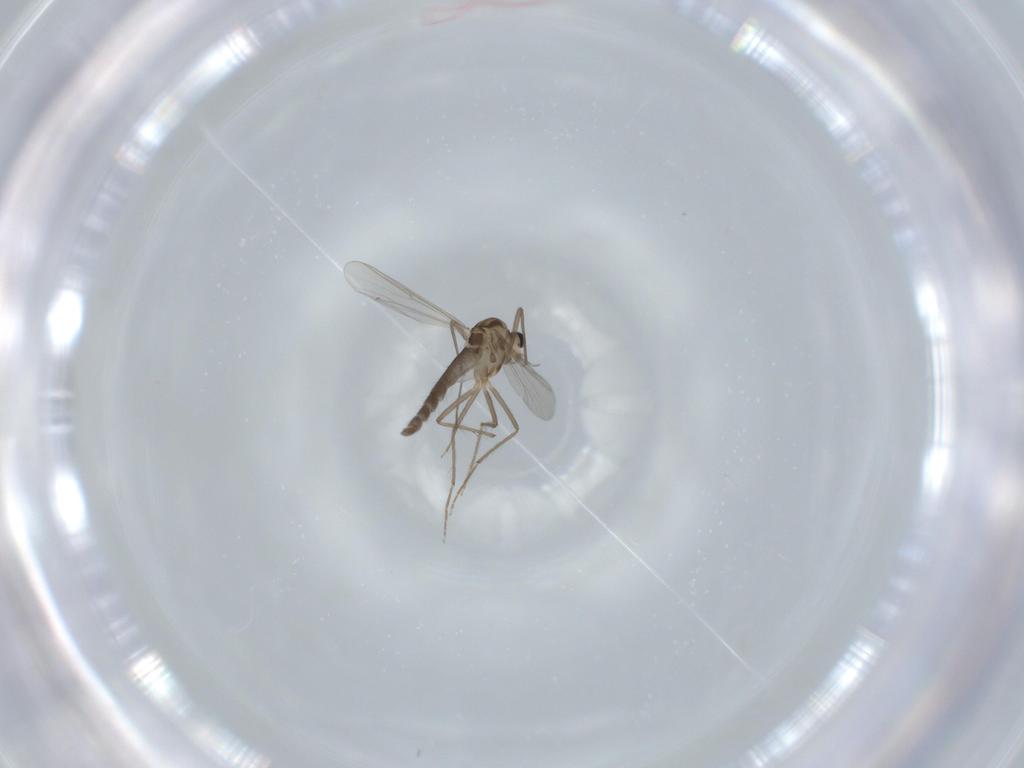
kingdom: Animalia
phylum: Arthropoda
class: Insecta
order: Diptera
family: Chironomidae
